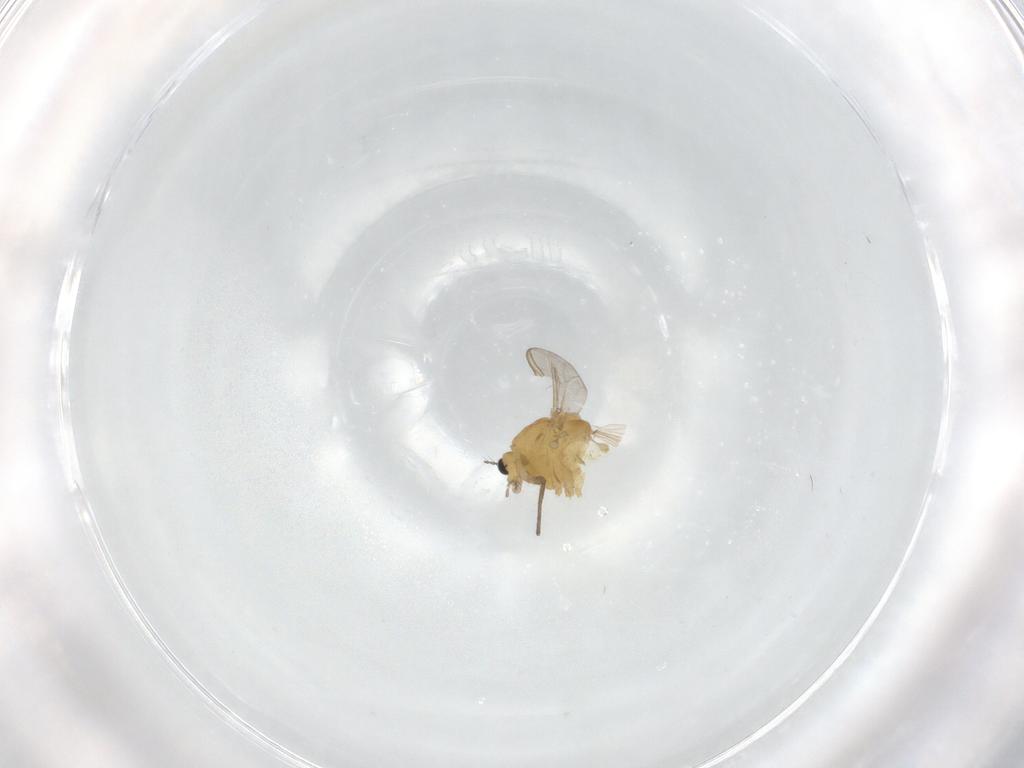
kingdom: Animalia
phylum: Arthropoda
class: Insecta
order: Diptera
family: Chironomidae
